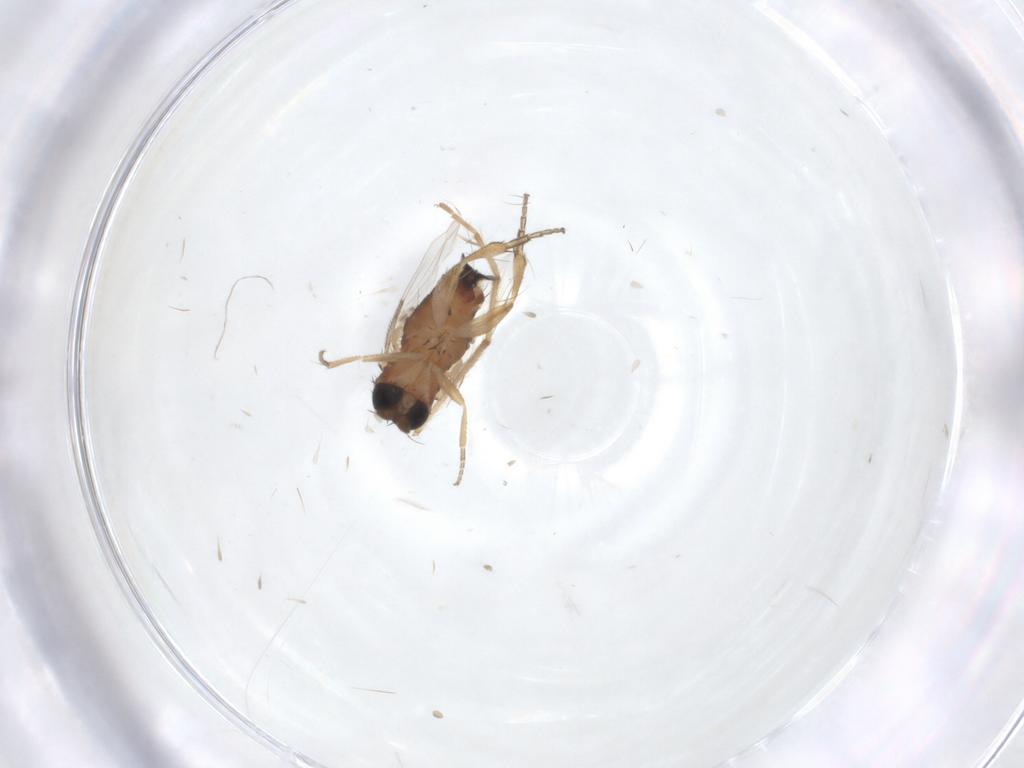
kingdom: Animalia
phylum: Arthropoda
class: Insecta
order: Diptera
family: Phoridae
